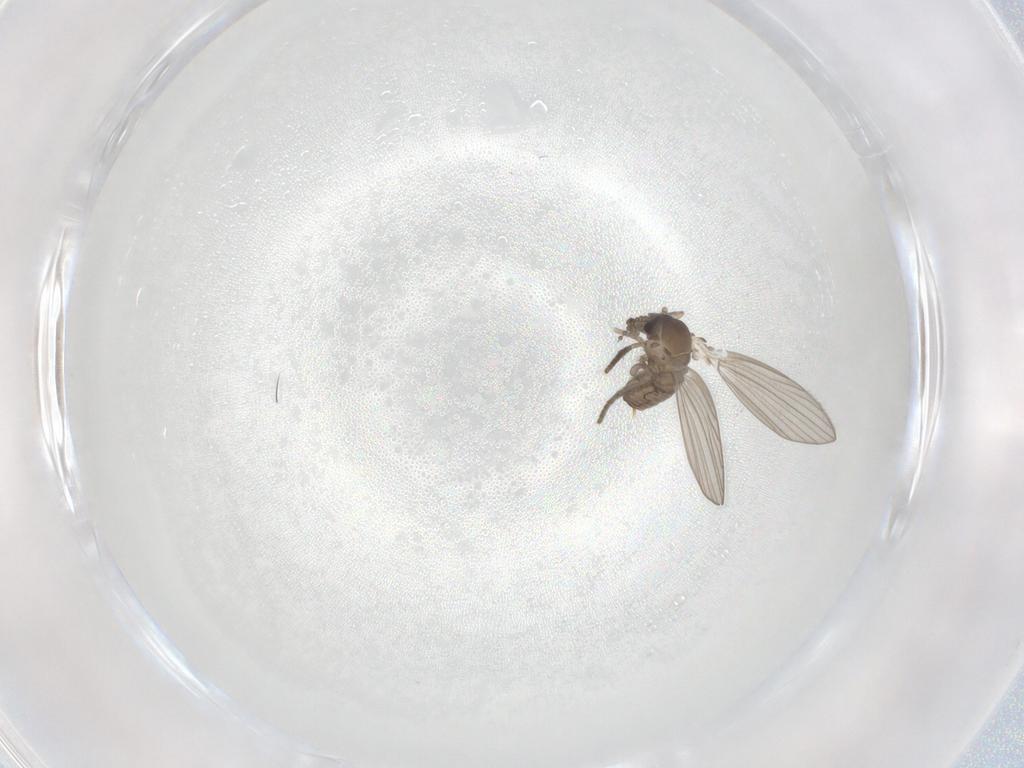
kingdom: Animalia
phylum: Arthropoda
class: Insecta
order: Diptera
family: Psychodidae
